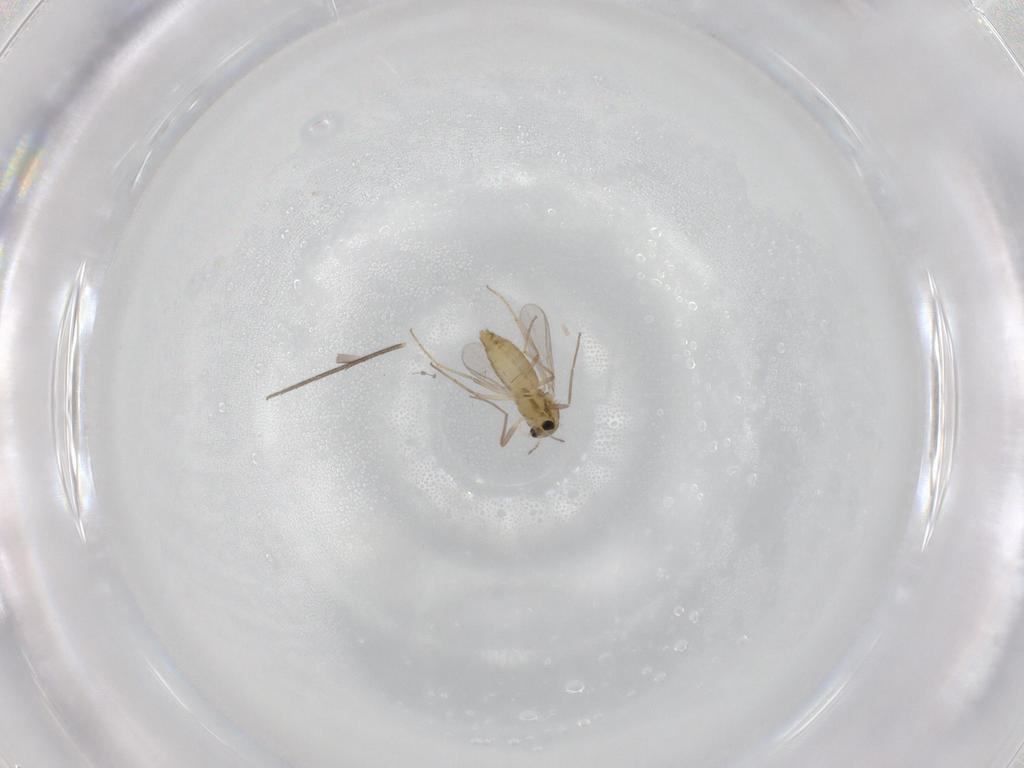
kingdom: Animalia
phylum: Arthropoda
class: Insecta
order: Diptera
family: Chironomidae
